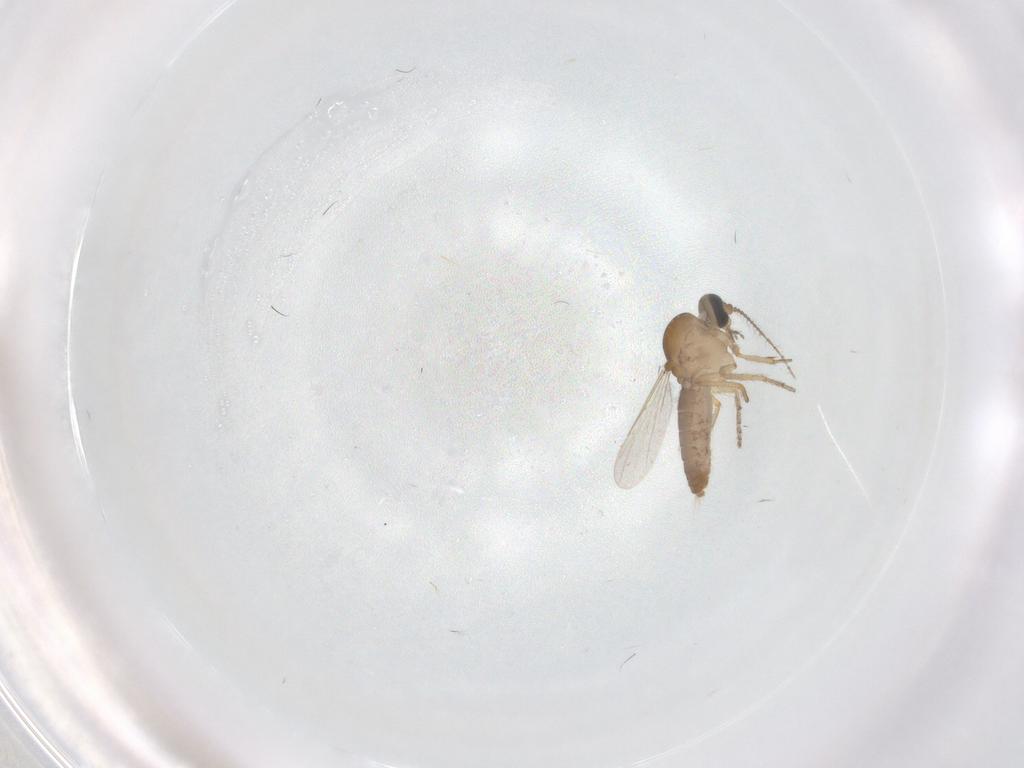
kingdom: Animalia
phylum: Arthropoda
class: Insecta
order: Diptera
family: Ceratopogonidae
